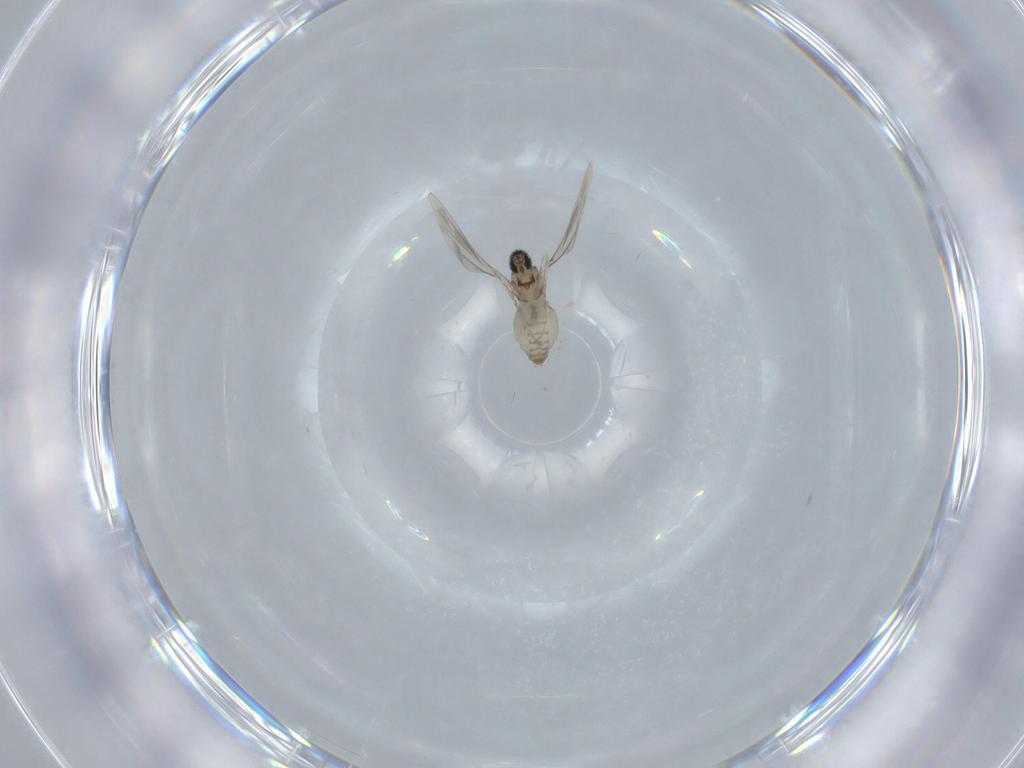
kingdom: Animalia
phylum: Arthropoda
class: Insecta
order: Diptera
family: Cecidomyiidae
